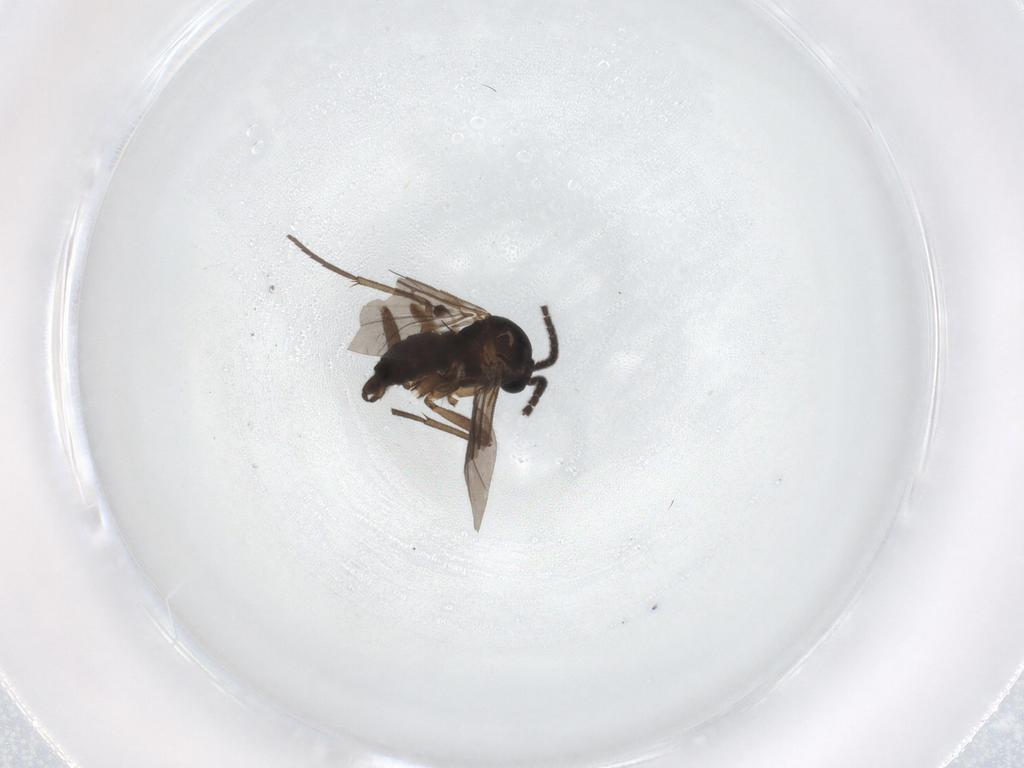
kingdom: Animalia
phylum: Arthropoda
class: Insecta
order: Diptera
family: Sciaridae
